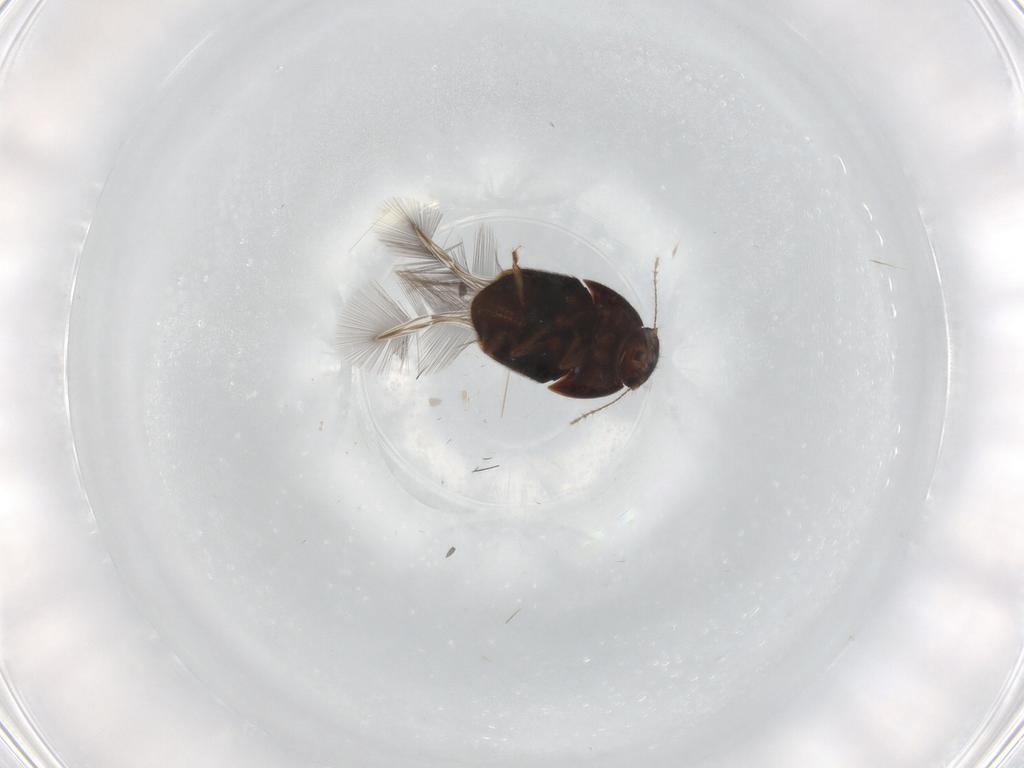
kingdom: Animalia
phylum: Arthropoda
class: Insecta
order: Coleoptera
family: Ptiliidae
